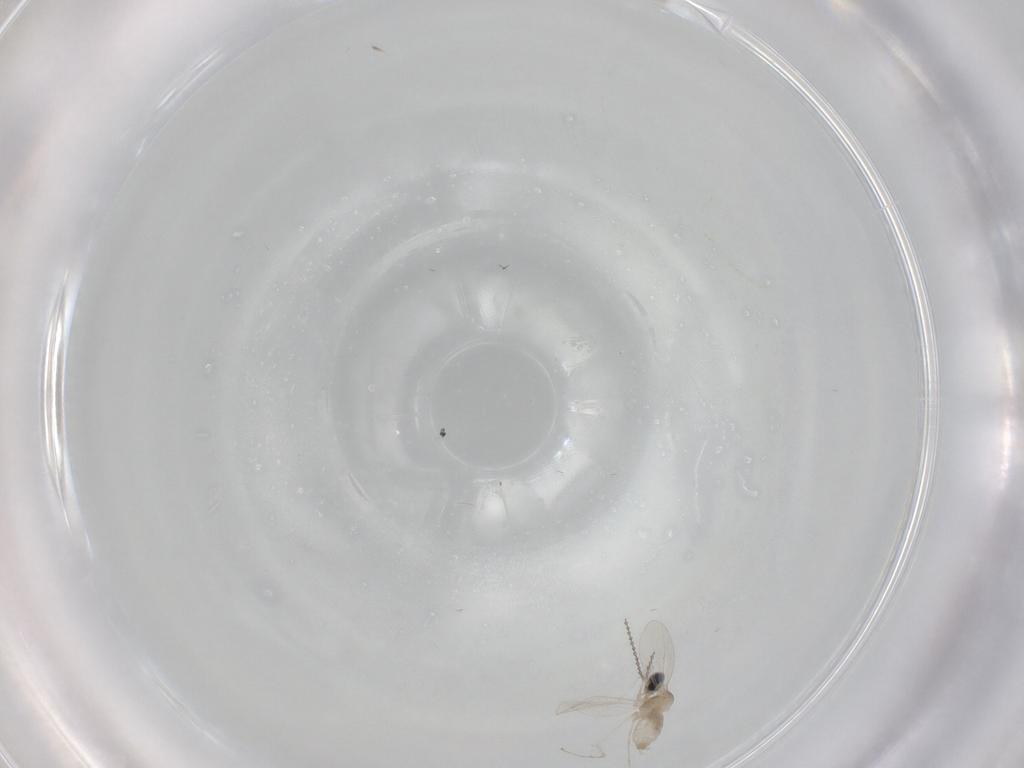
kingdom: Animalia
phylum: Arthropoda
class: Insecta
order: Diptera
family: Cecidomyiidae
